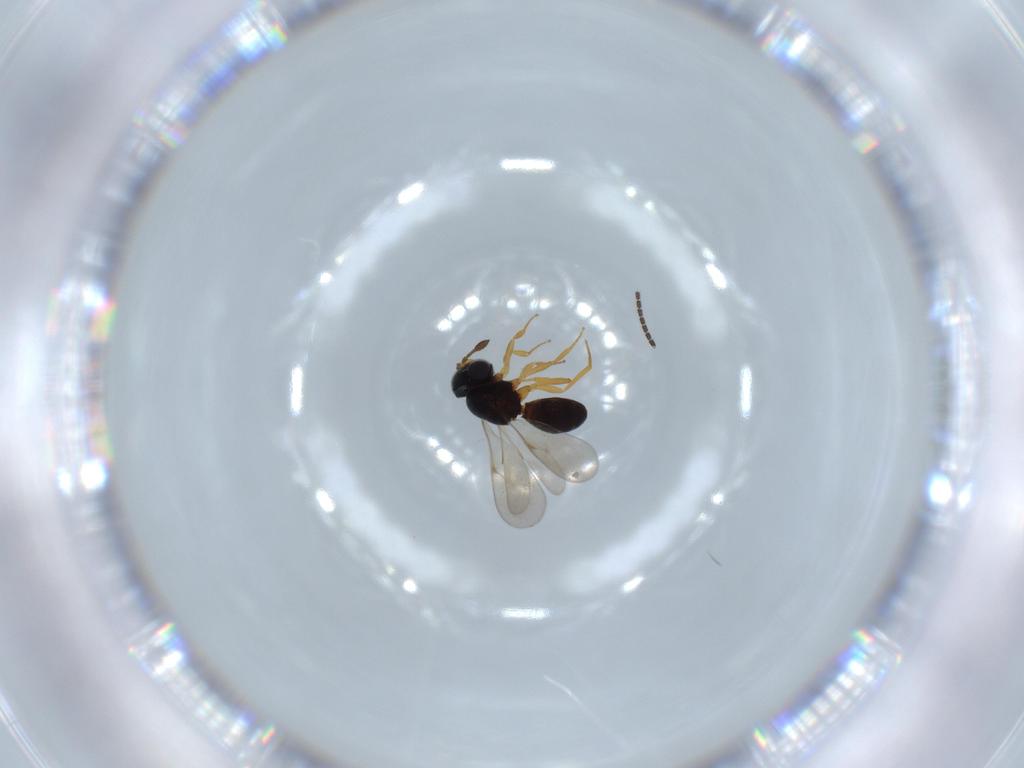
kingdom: Animalia
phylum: Arthropoda
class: Insecta
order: Hymenoptera
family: Scelionidae
